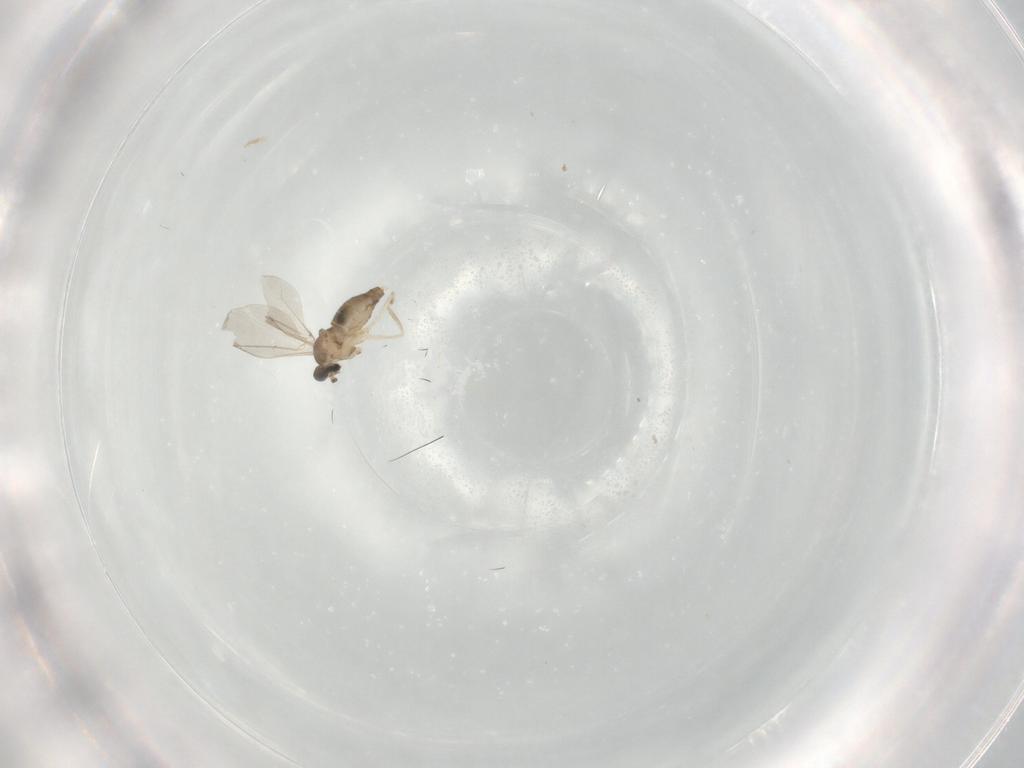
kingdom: Animalia
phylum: Arthropoda
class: Insecta
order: Diptera
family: Cecidomyiidae
